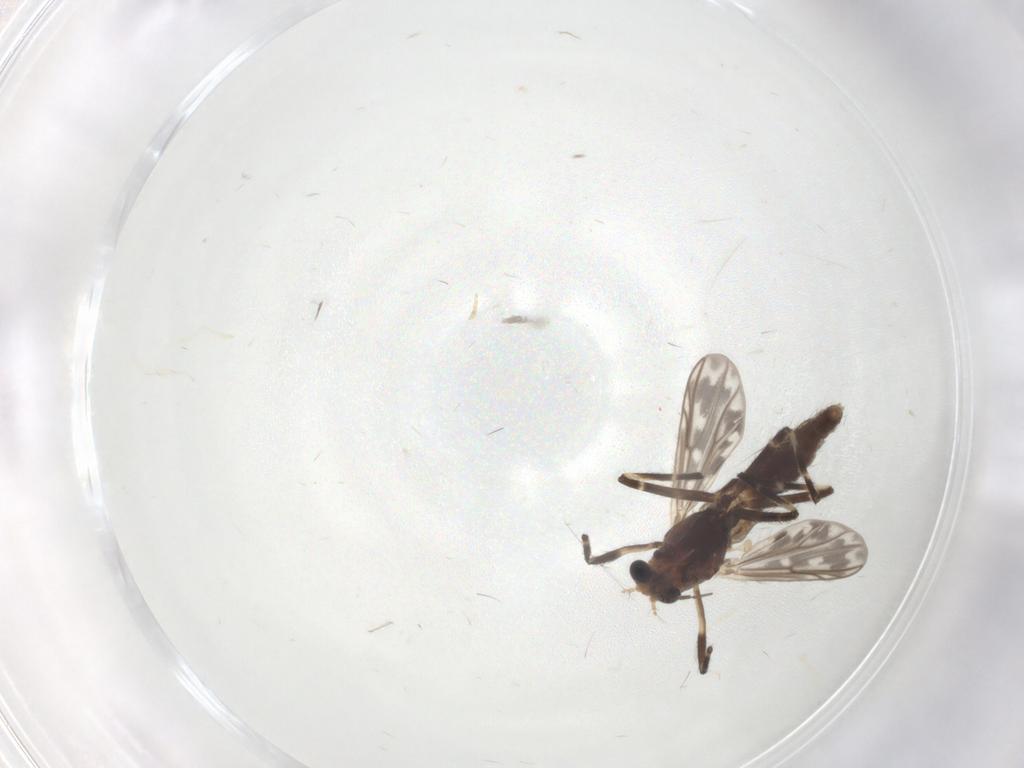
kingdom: Animalia
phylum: Arthropoda
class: Insecta
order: Diptera
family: Chironomidae
